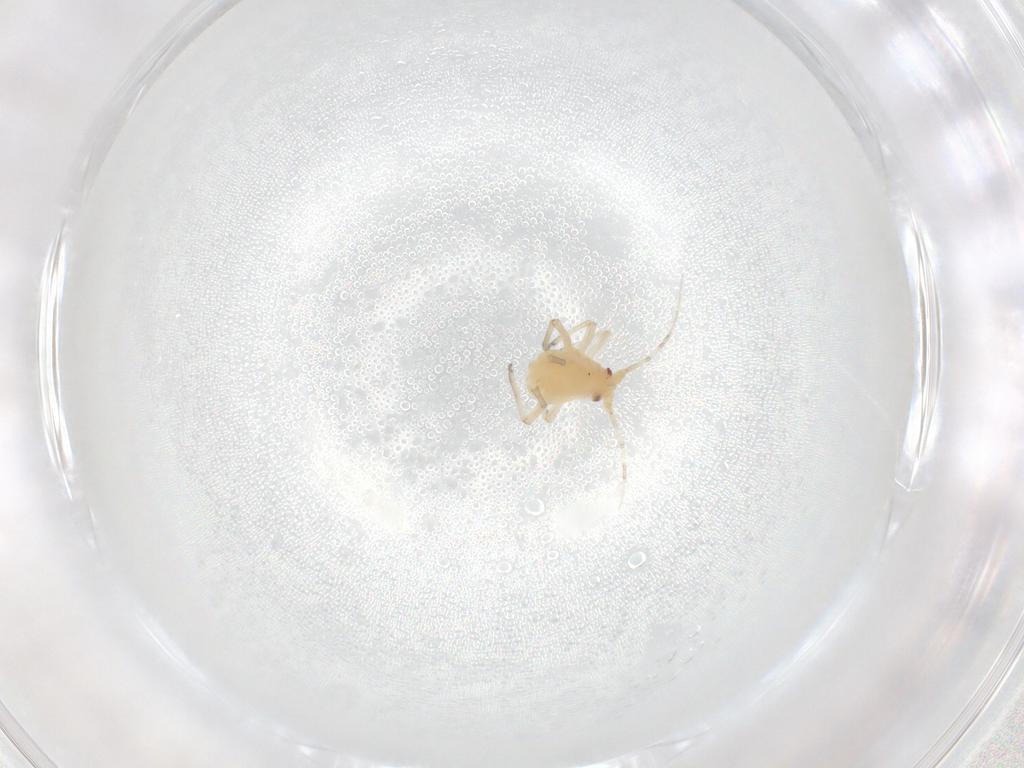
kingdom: Animalia
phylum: Arthropoda
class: Insecta
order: Hemiptera
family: Aphididae
